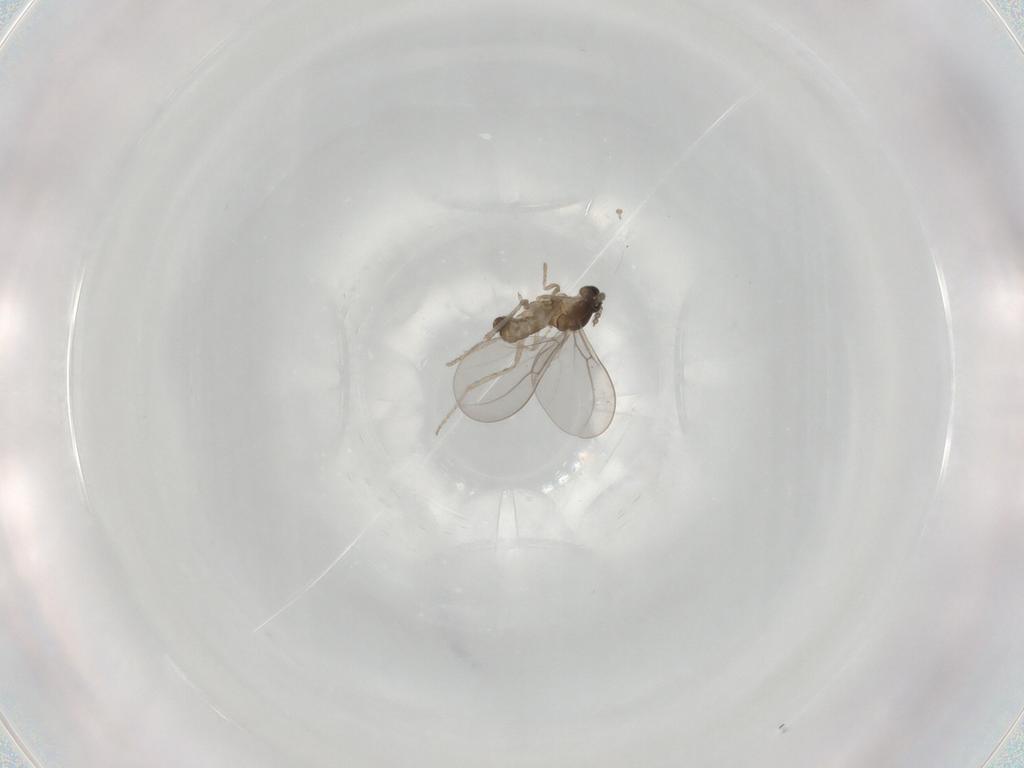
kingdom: Animalia
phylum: Arthropoda
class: Insecta
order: Diptera
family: Cecidomyiidae
